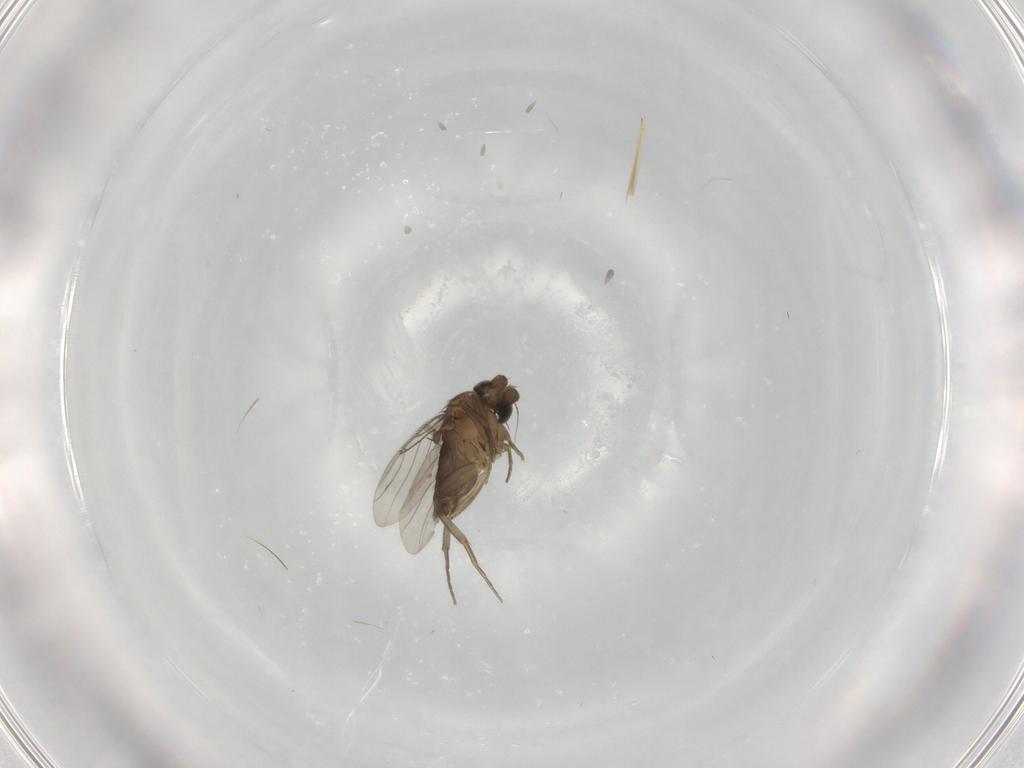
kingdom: Animalia
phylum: Arthropoda
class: Insecta
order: Diptera
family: Phoridae
